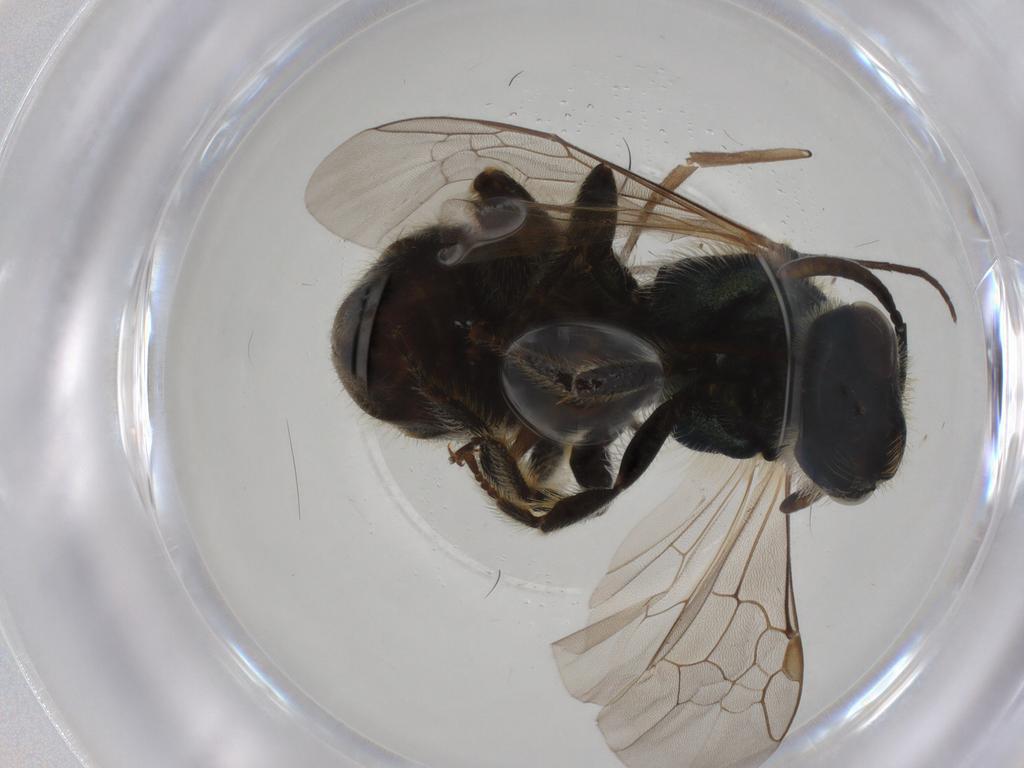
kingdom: Animalia
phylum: Arthropoda
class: Insecta
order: Hymenoptera
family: Halictidae
